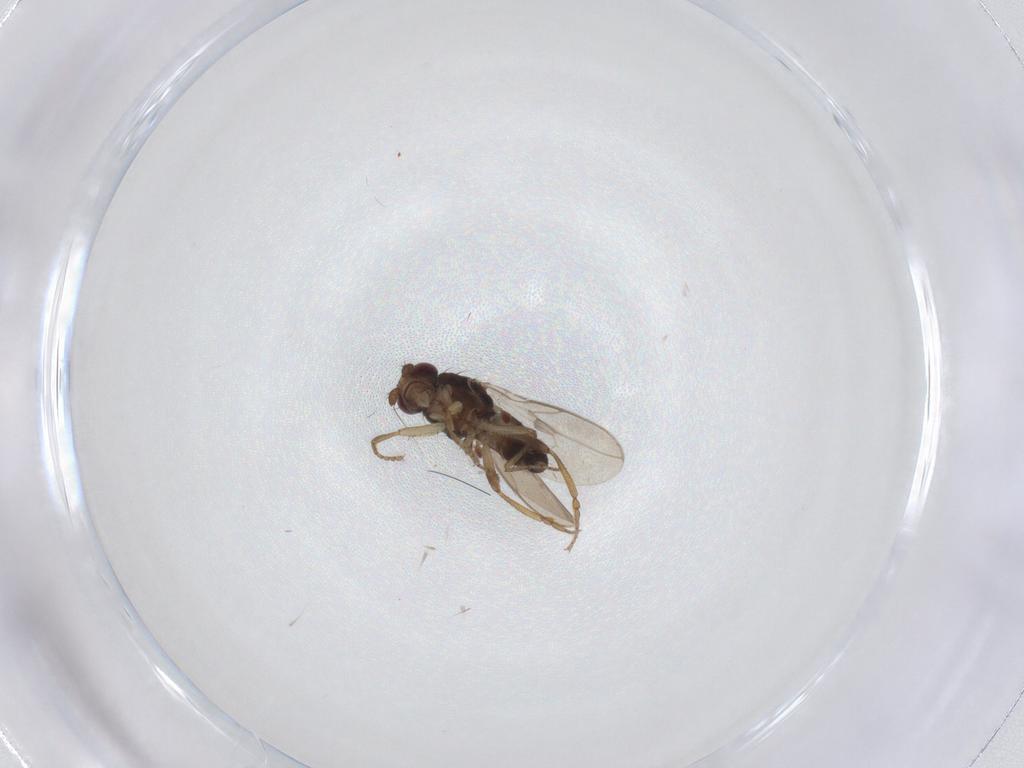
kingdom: Animalia
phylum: Arthropoda
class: Insecta
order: Diptera
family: Sphaeroceridae
